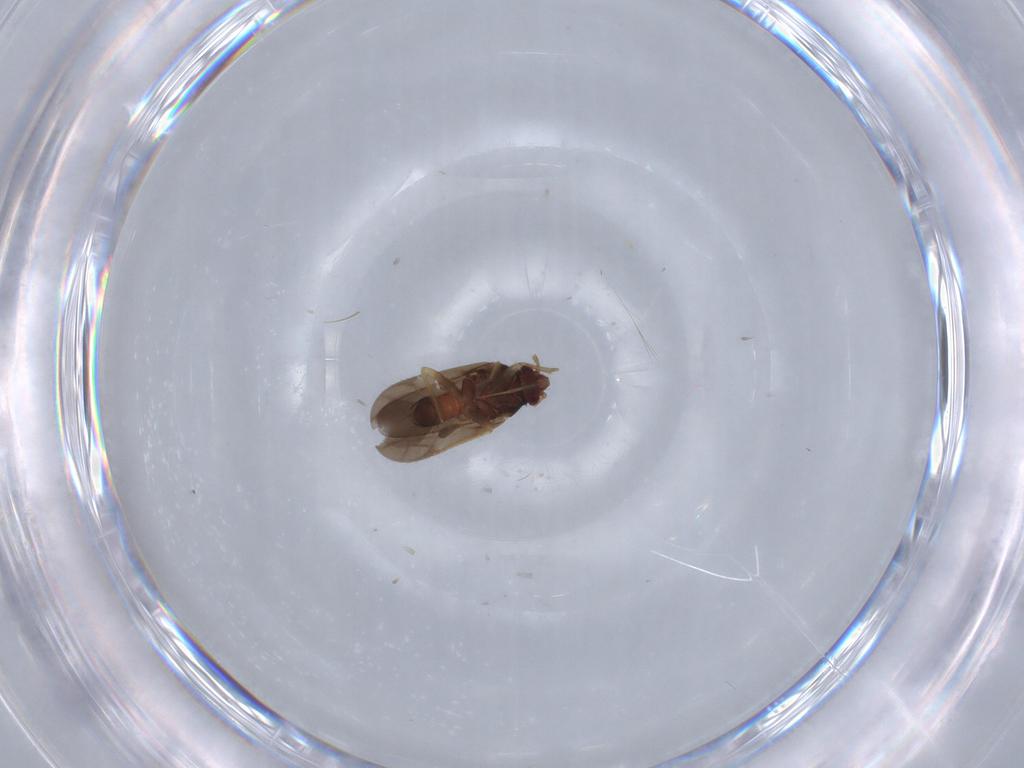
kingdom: Animalia
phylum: Arthropoda
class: Insecta
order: Hemiptera
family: Ceratocombidae
